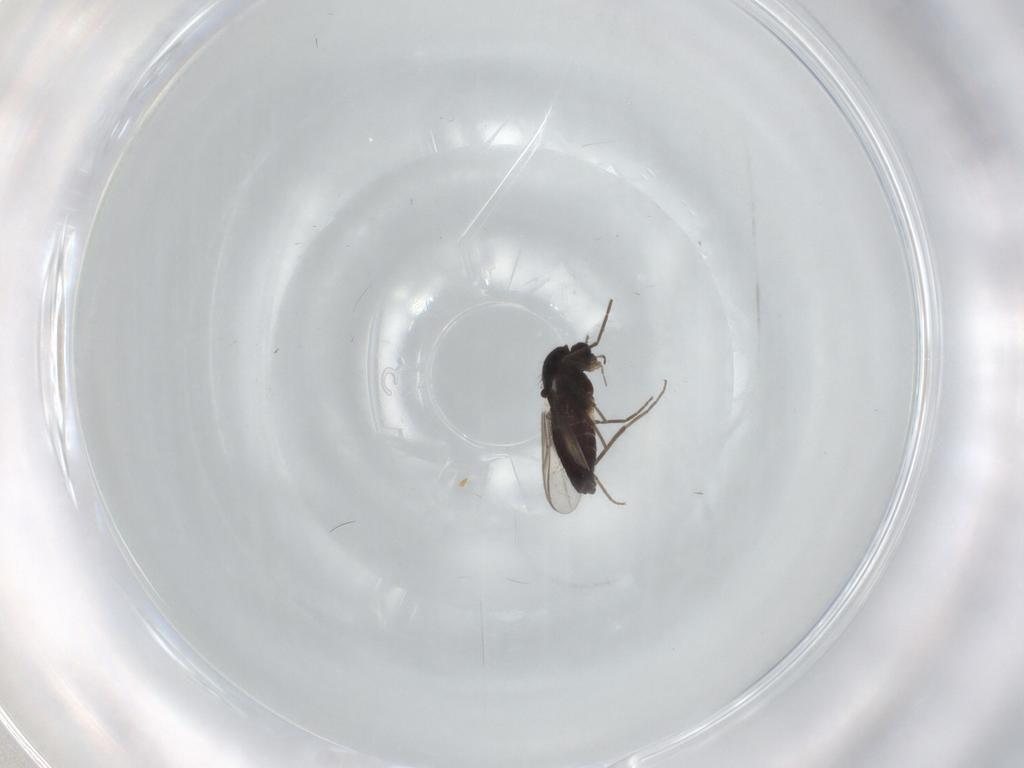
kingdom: Animalia
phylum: Arthropoda
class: Insecta
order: Diptera
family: Chironomidae
